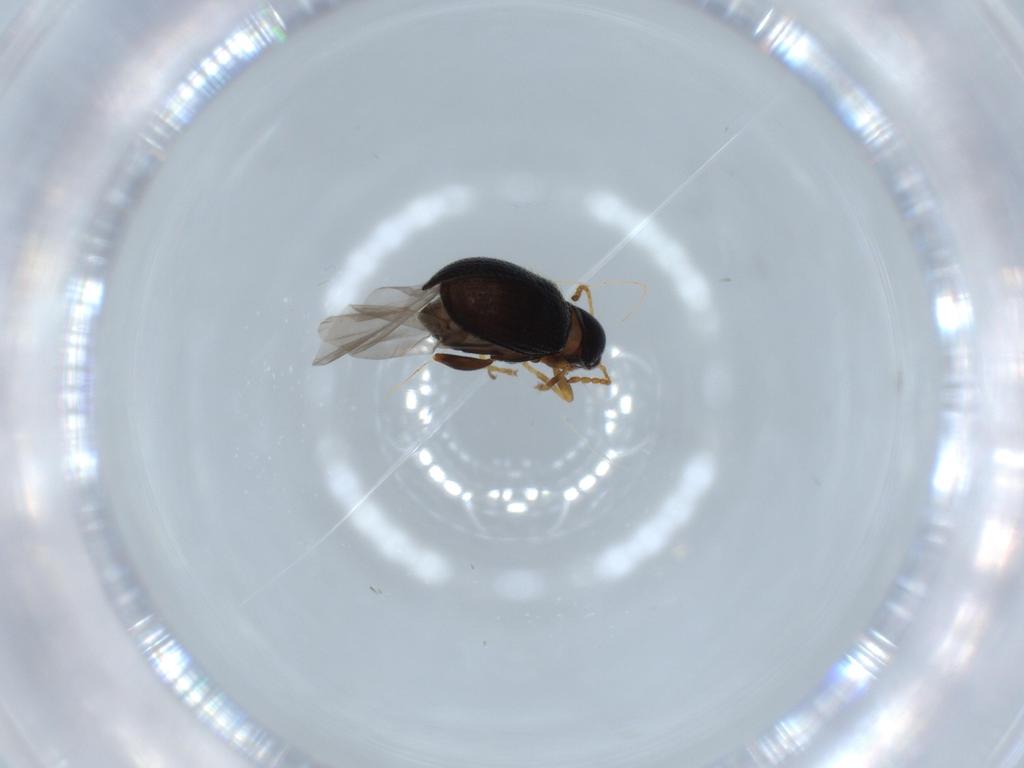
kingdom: Animalia
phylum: Arthropoda
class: Insecta
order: Coleoptera
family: Chrysomelidae
